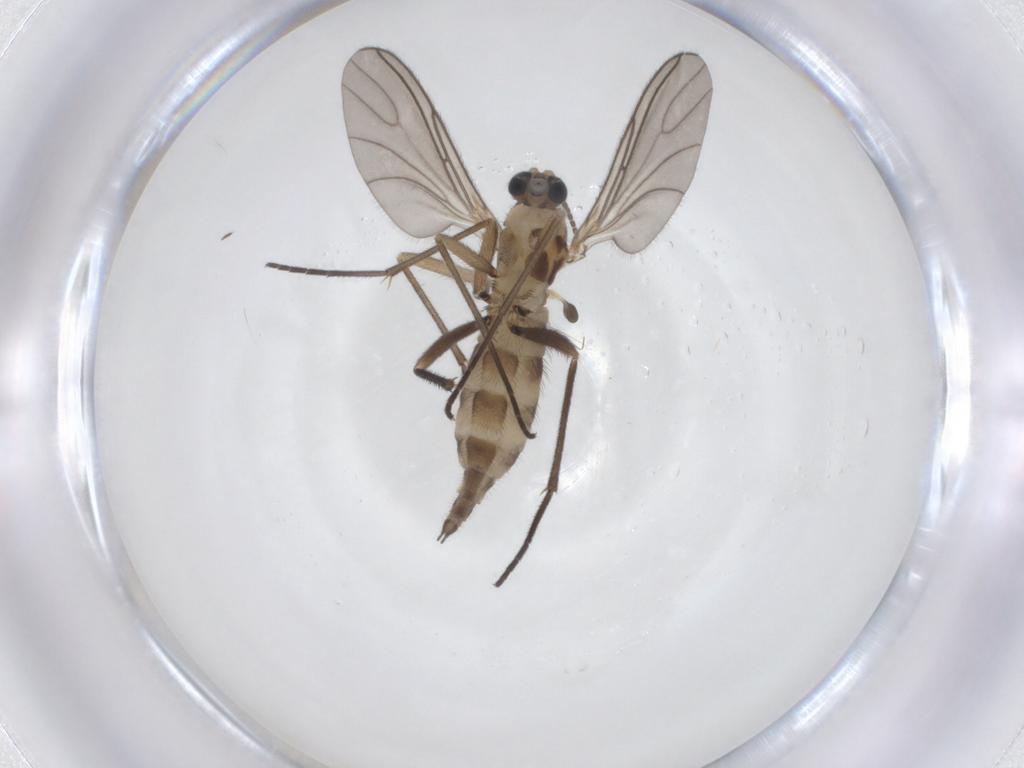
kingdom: Animalia
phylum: Arthropoda
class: Insecta
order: Diptera
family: Sciaridae
